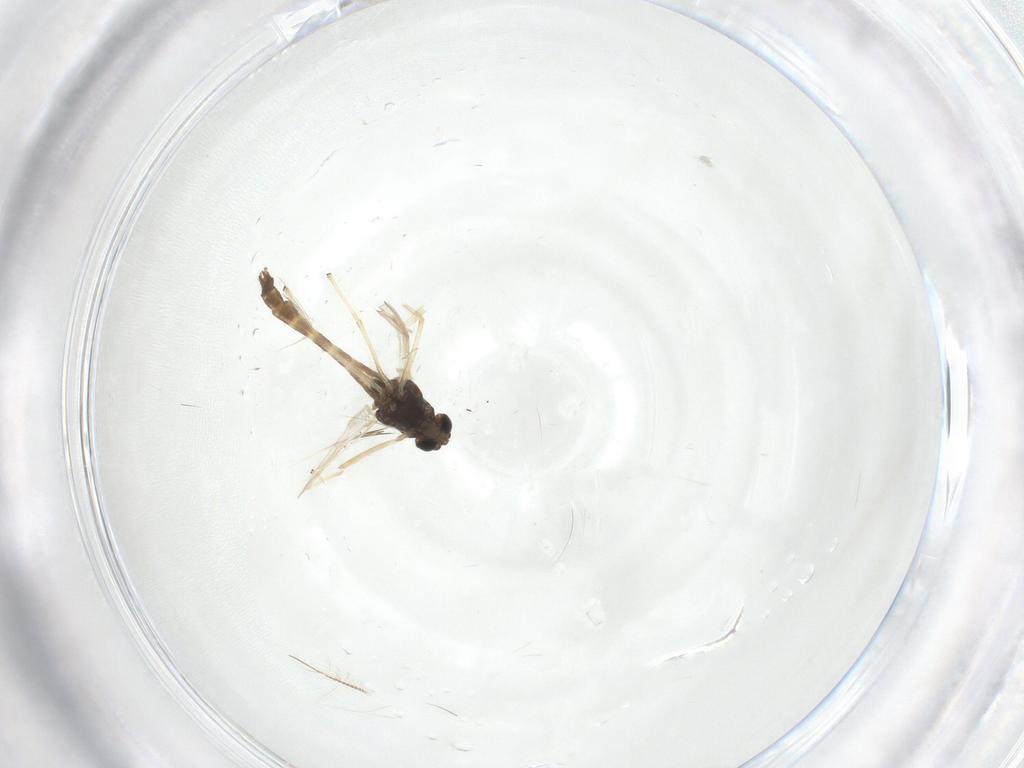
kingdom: Animalia
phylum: Arthropoda
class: Insecta
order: Diptera
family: Chironomidae
